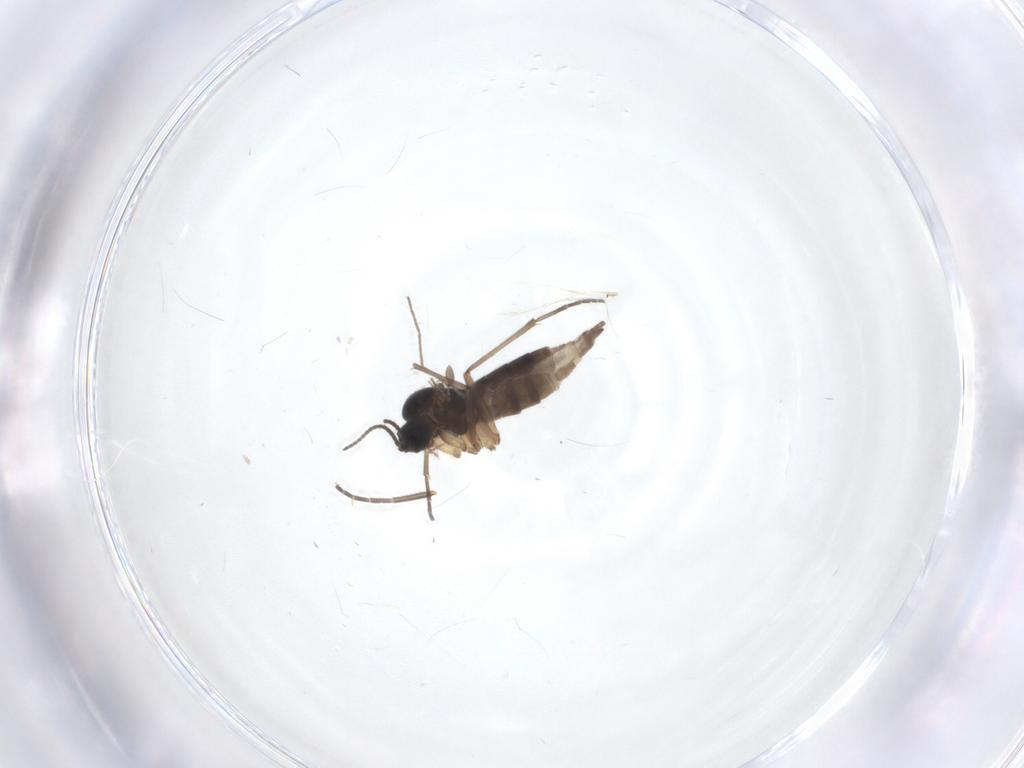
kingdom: Animalia
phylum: Arthropoda
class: Insecta
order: Diptera
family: Sciaridae
